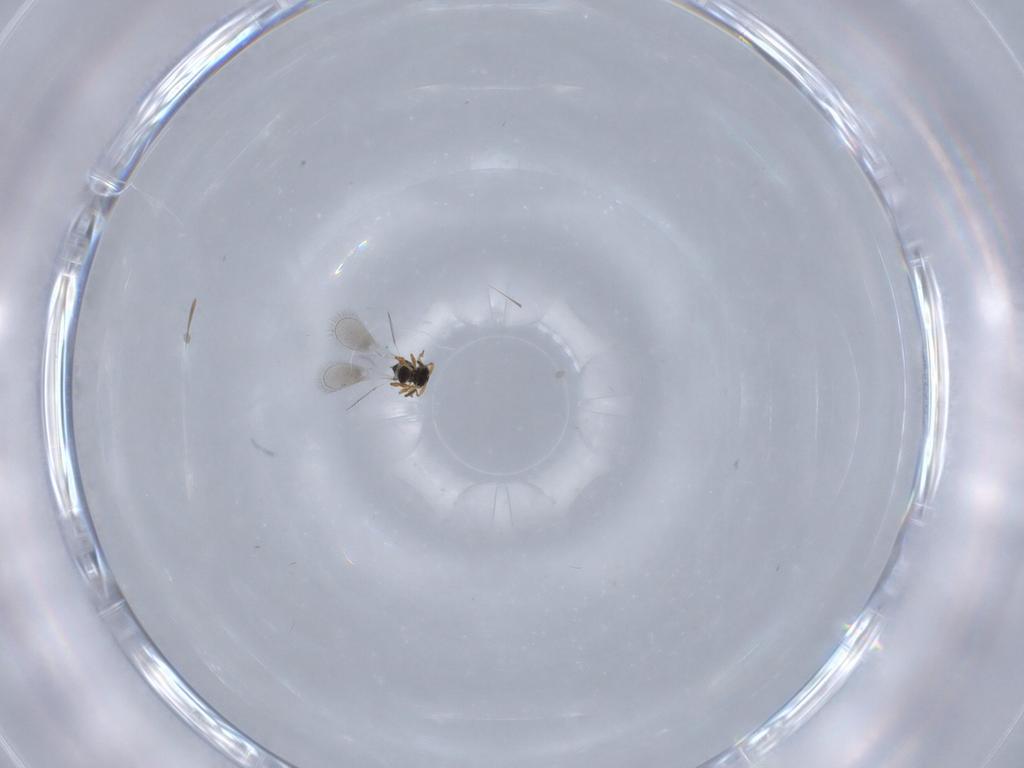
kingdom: Animalia
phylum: Arthropoda
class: Insecta
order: Hymenoptera
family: Platygastridae
